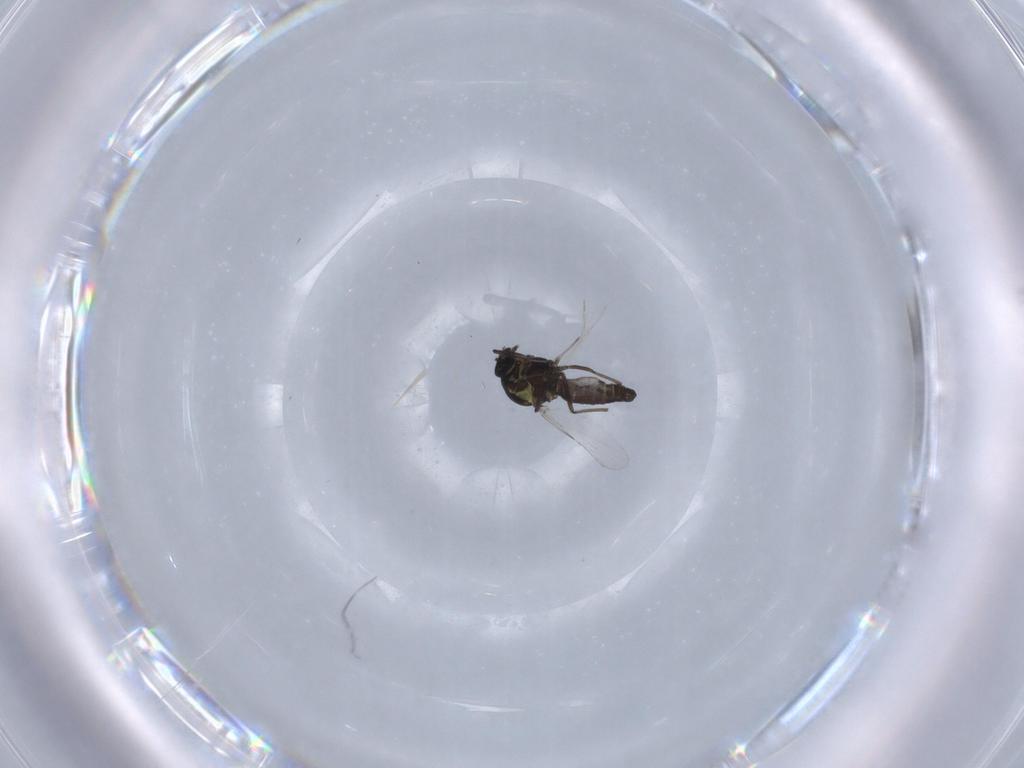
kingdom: Animalia
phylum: Arthropoda
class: Insecta
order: Diptera
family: Ceratopogonidae
